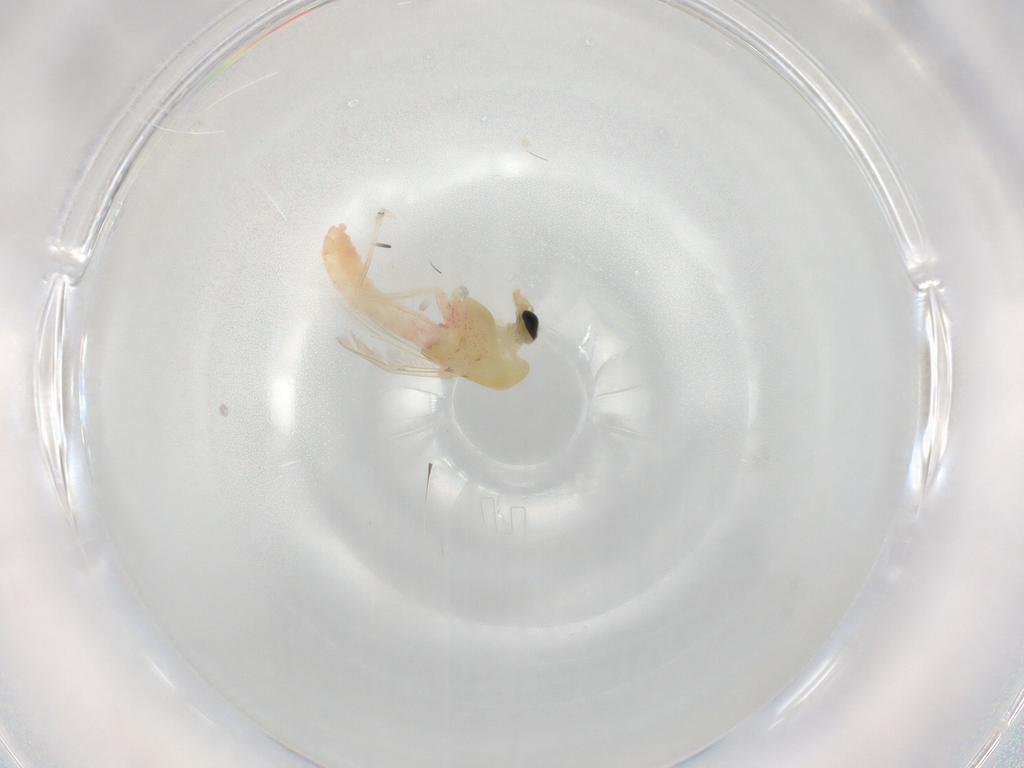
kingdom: Animalia
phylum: Arthropoda
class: Insecta
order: Diptera
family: Chironomidae
